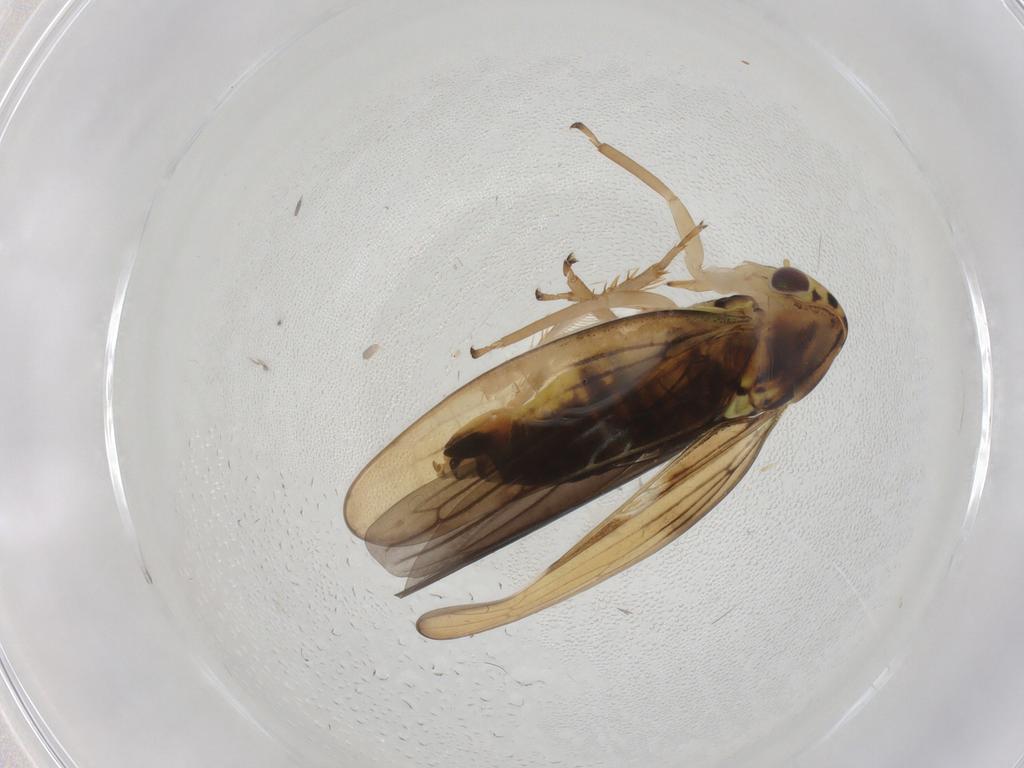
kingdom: Animalia
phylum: Arthropoda
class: Insecta
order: Hemiptera
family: Cicadellidae
